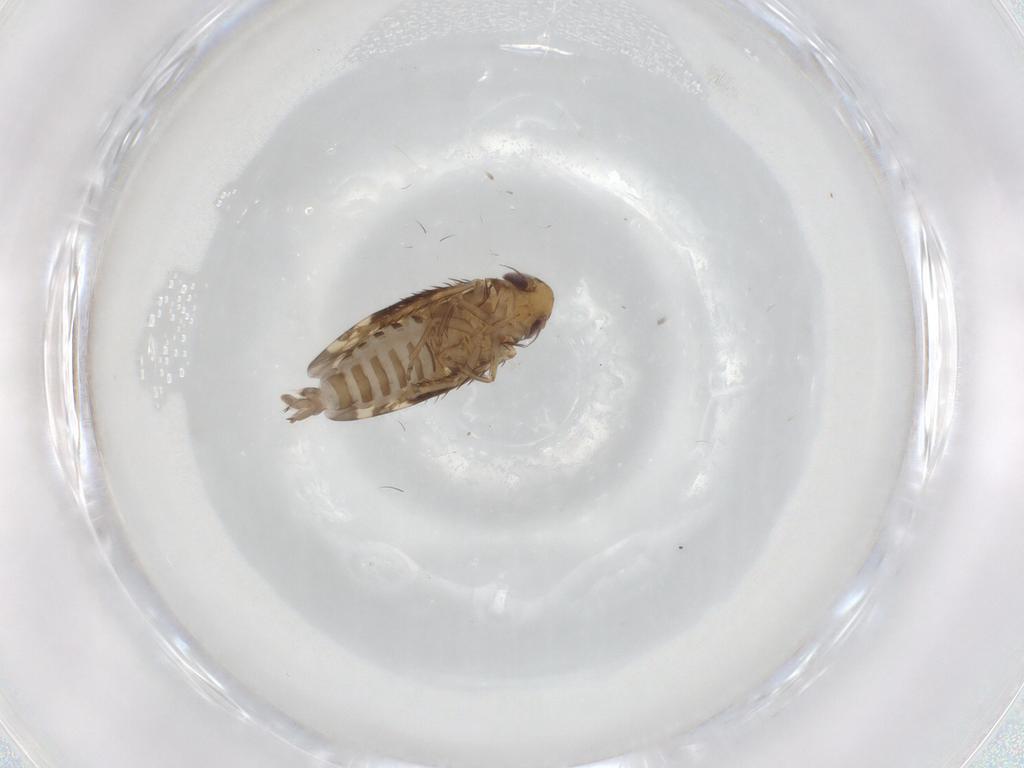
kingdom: Animalia
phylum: Arthropoda
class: Insecta
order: Hemiptera
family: Cicadellidae
